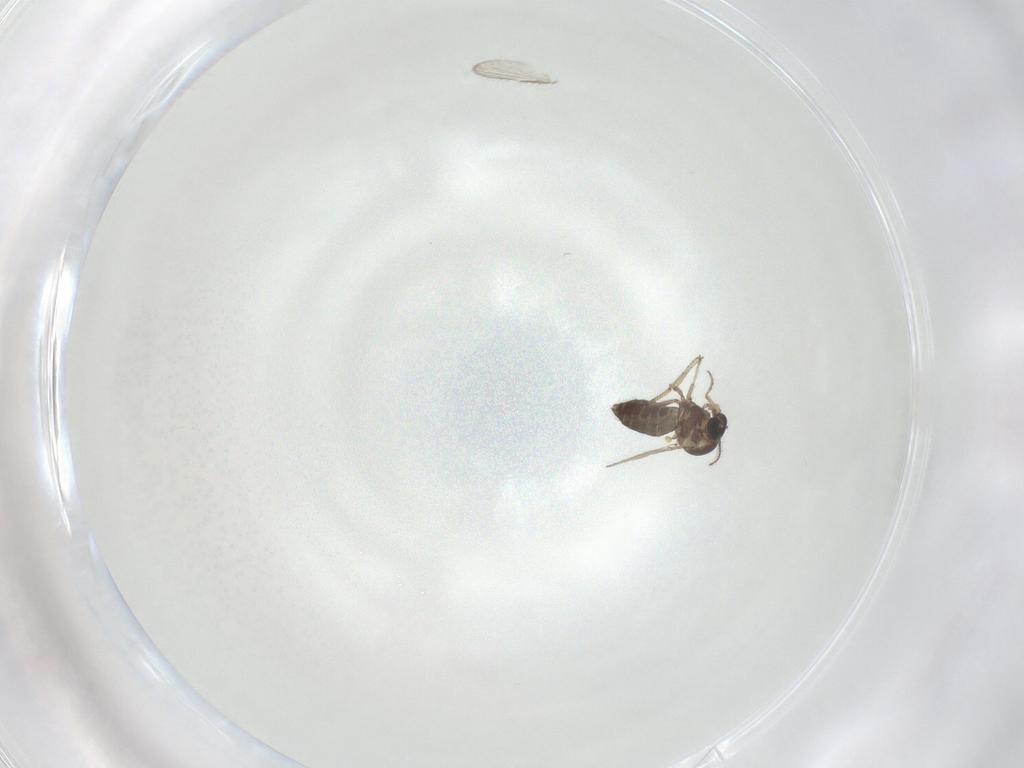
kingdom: Animalia
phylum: Arthropoda
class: Insecta
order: Diptera
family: Ceratopogonidae
